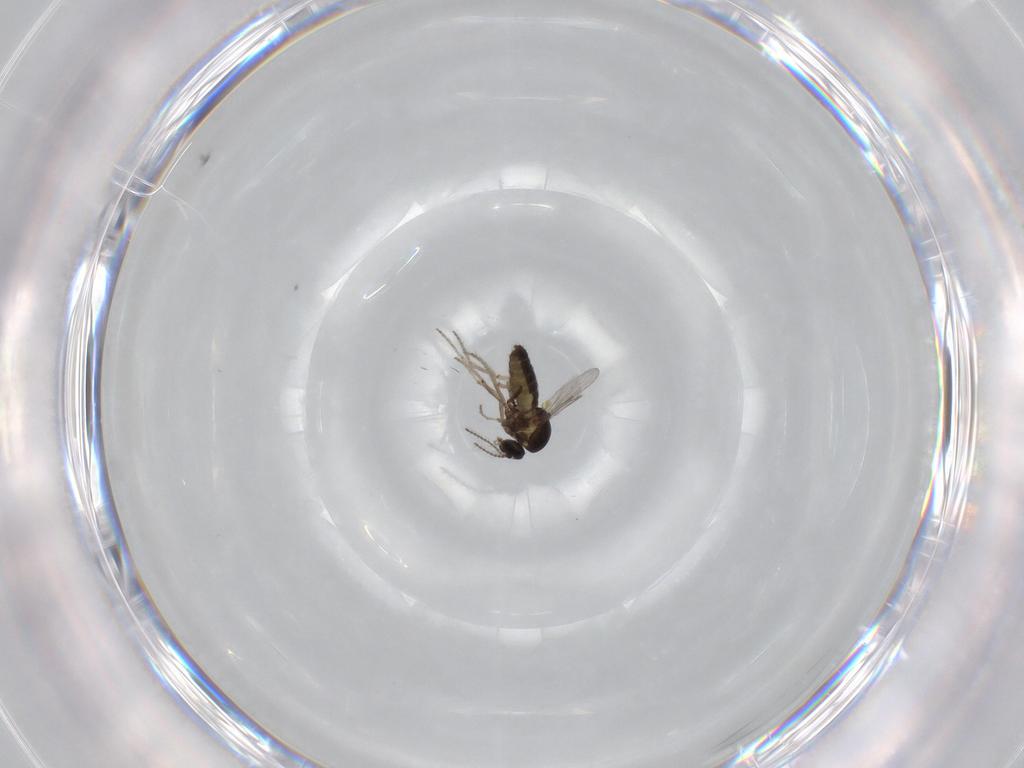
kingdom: Animalia
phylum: Arthropoda
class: Insecta
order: Diptera
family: Ceratopogonidae
